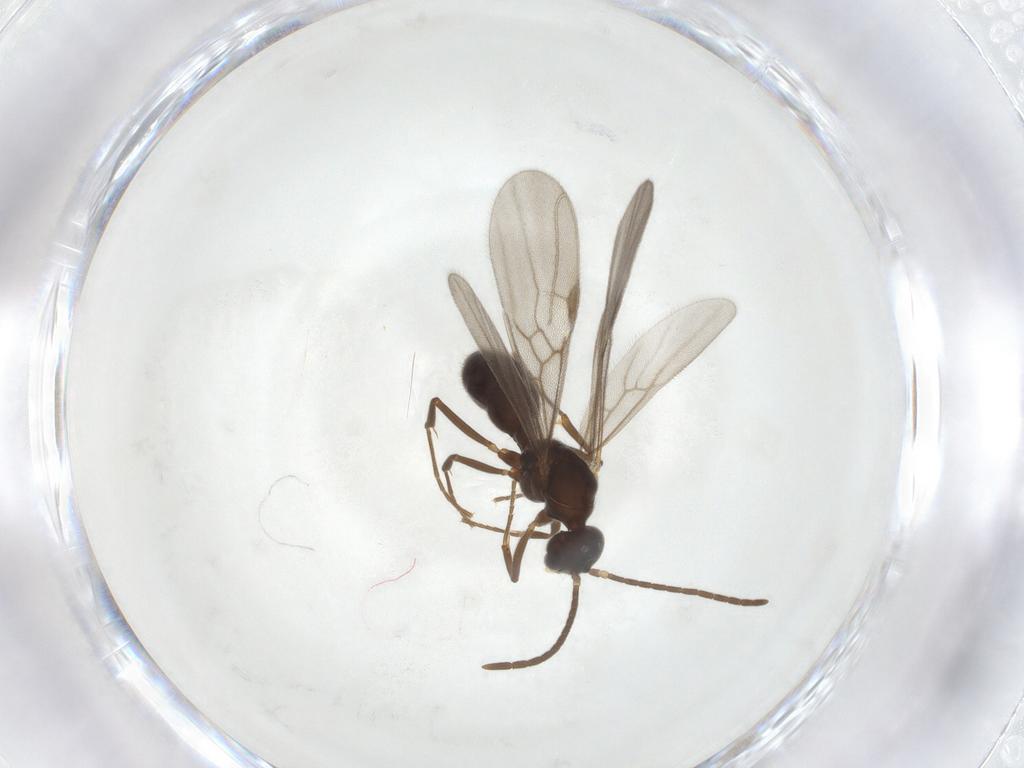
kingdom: Animalia
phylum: Arthropoda
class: Insecta
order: Hymenoptera
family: Formicidae
